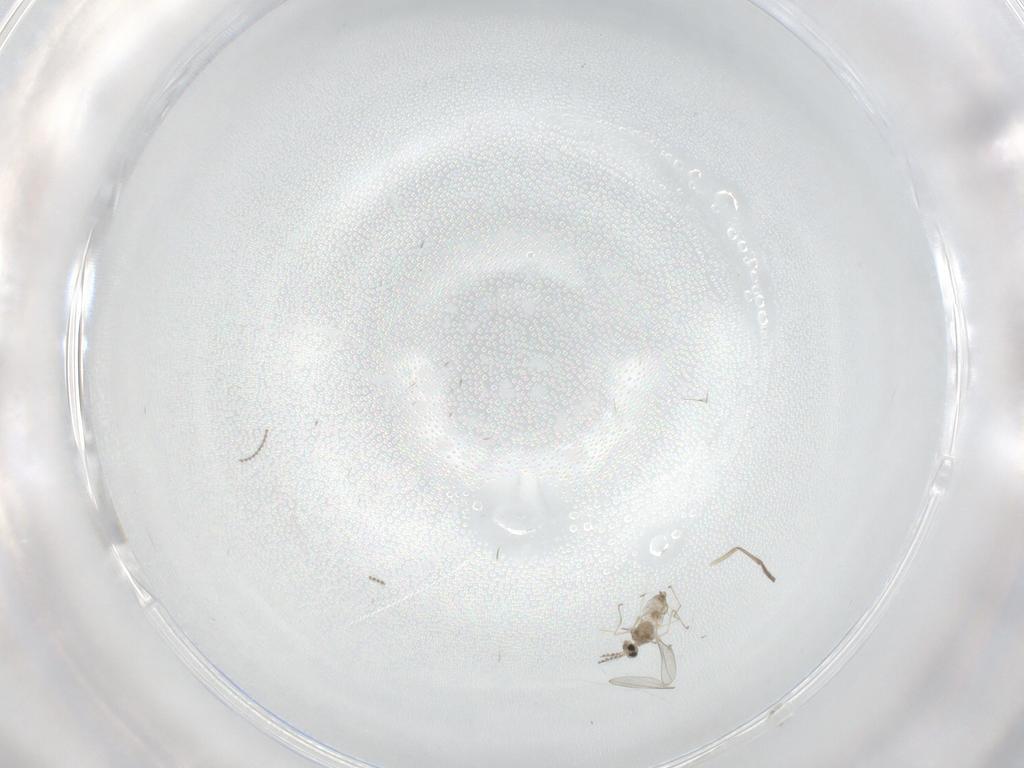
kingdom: Animalia
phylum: Arthropoda
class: Insecta
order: Diptera
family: Cecidomyiidae
